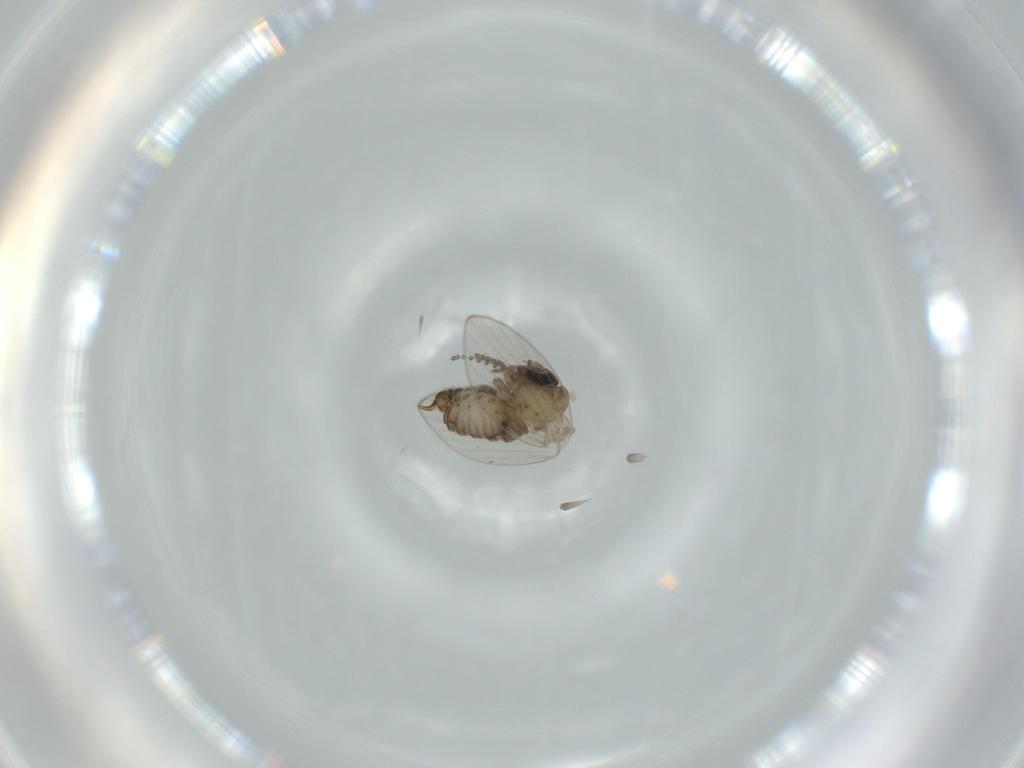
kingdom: Animalia
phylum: Arthropoda
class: Insecta
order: Diptera
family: Psychodidae
